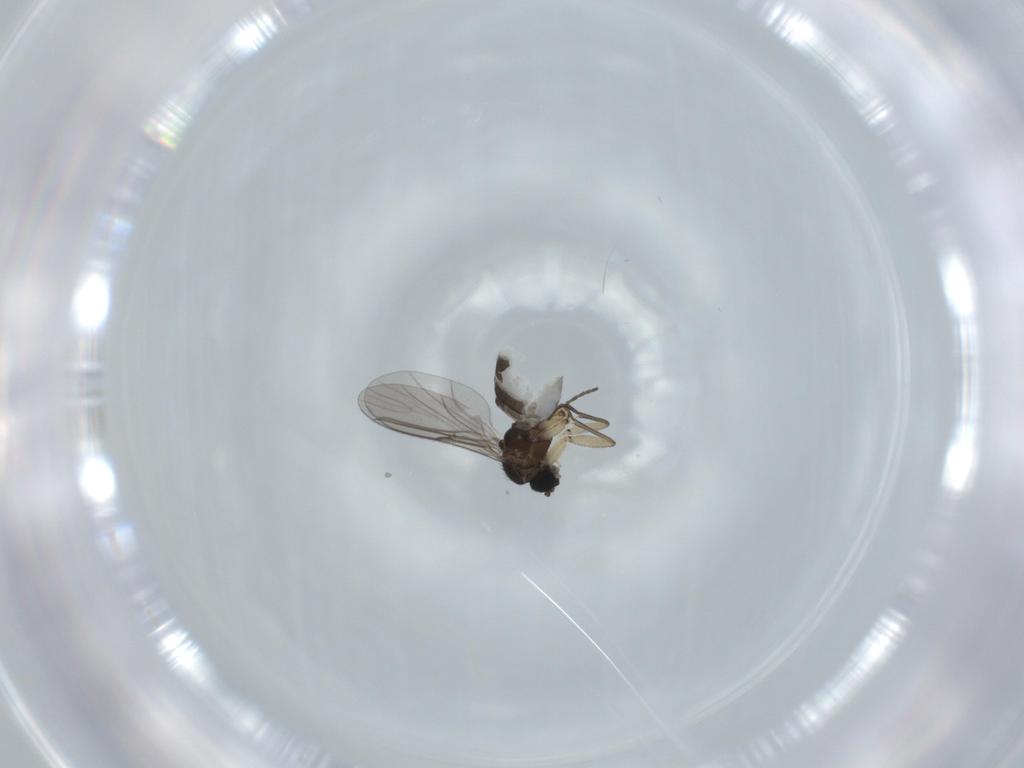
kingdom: Animalia
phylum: Arthropoda
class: Insecta
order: Diptera
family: Sciaridae
